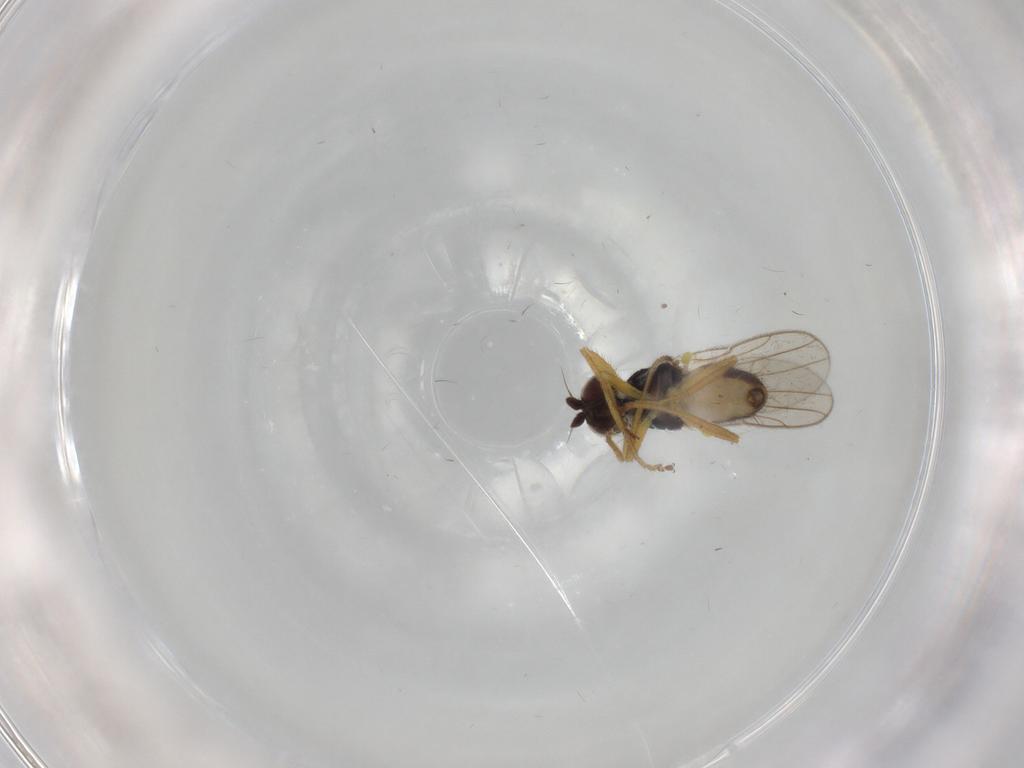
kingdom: Animalia
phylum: Arthropoda
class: Insecta
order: Diptera
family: Chloropidae
